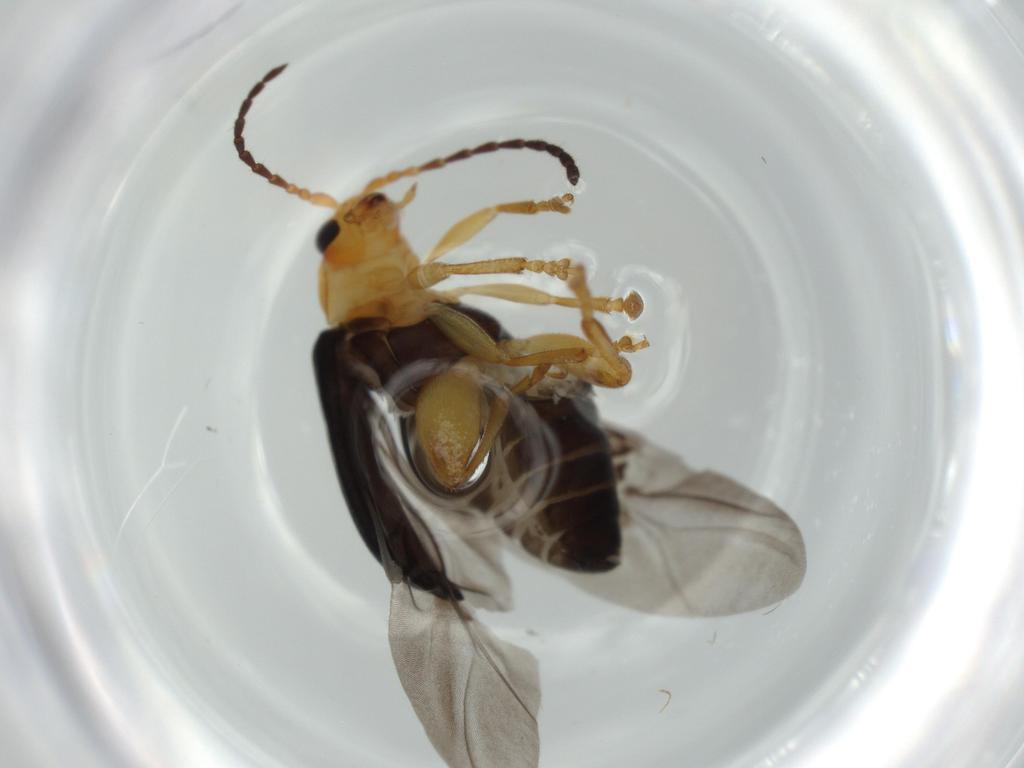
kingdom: Animalia
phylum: Arthropoda
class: Insecta
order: Coleoptera
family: Chrysomelidae
